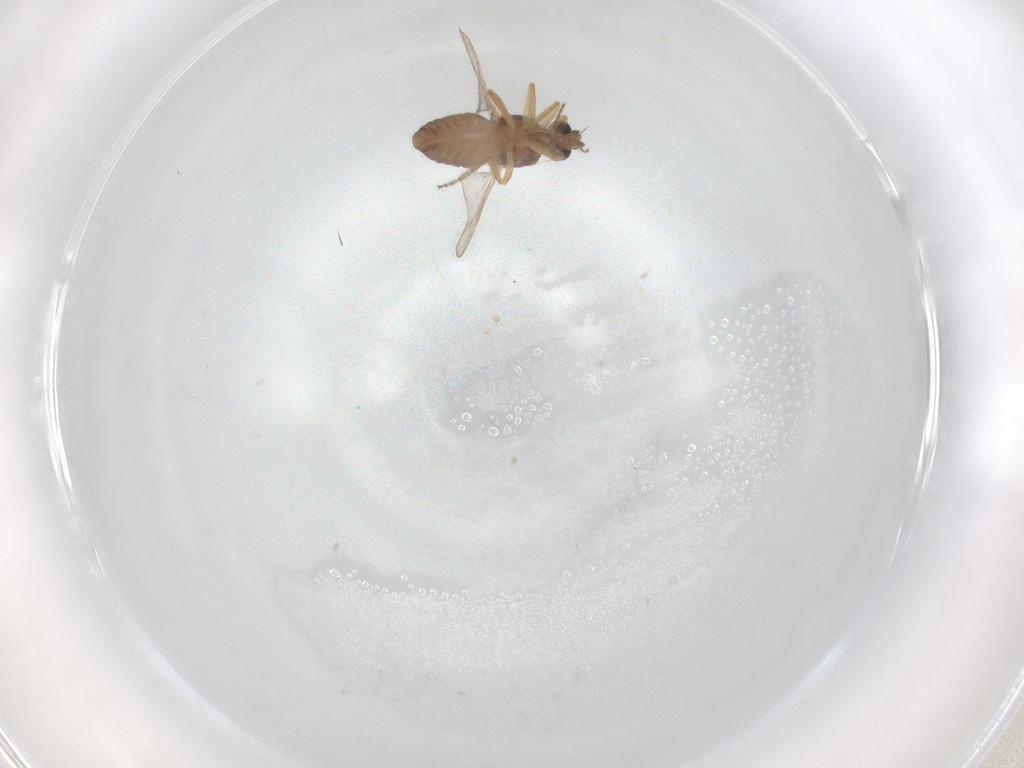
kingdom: Animalia
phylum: Arthropoda
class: Insecta
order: Diptera
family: Ceratopogonidae
